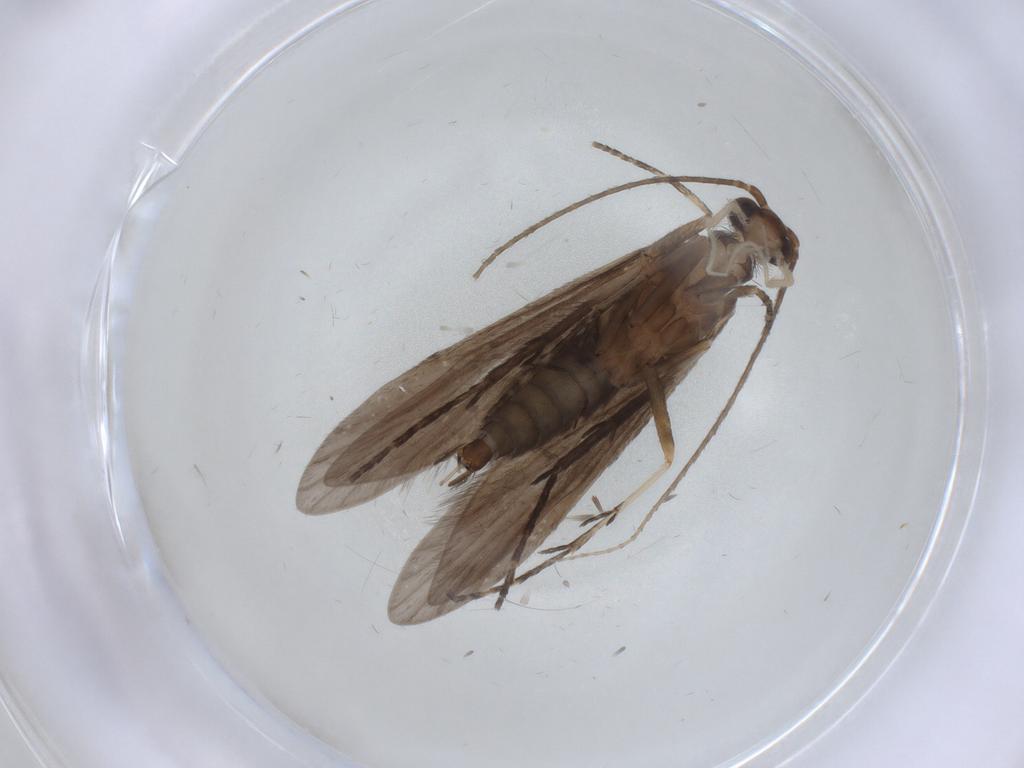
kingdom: Animalia
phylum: Arthropoda
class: Insecta
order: Trichoptera
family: Xiphocentronidae
